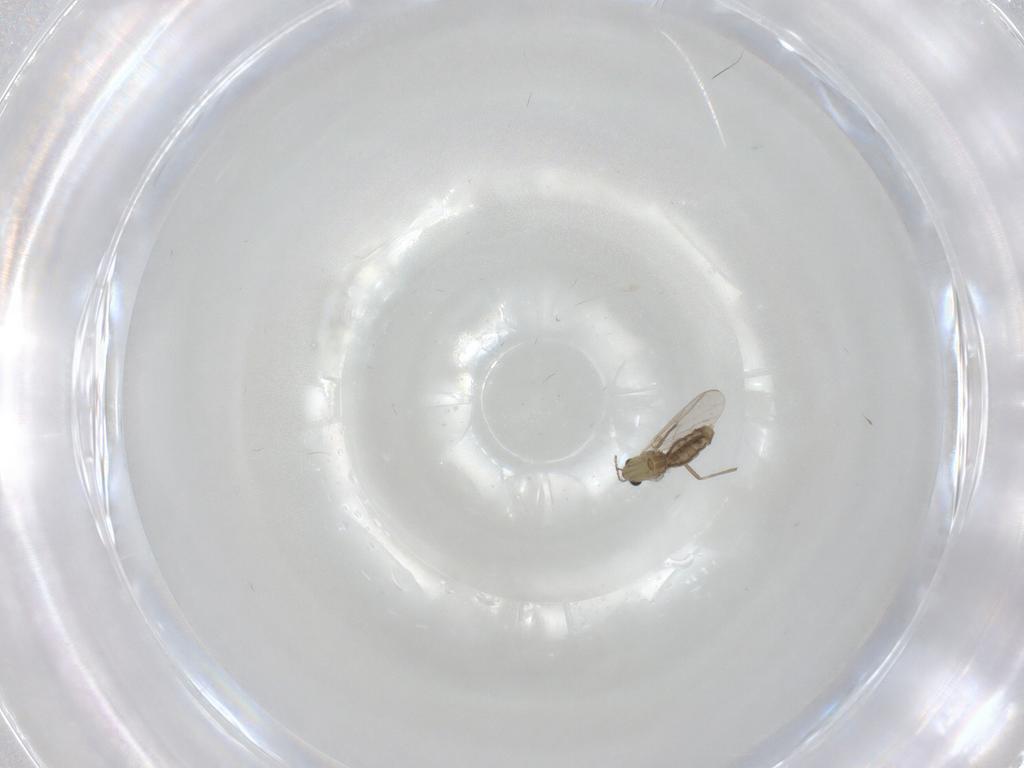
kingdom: Animalia
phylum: Arthropoda
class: Insecta
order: Diptera
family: Chironomidae
